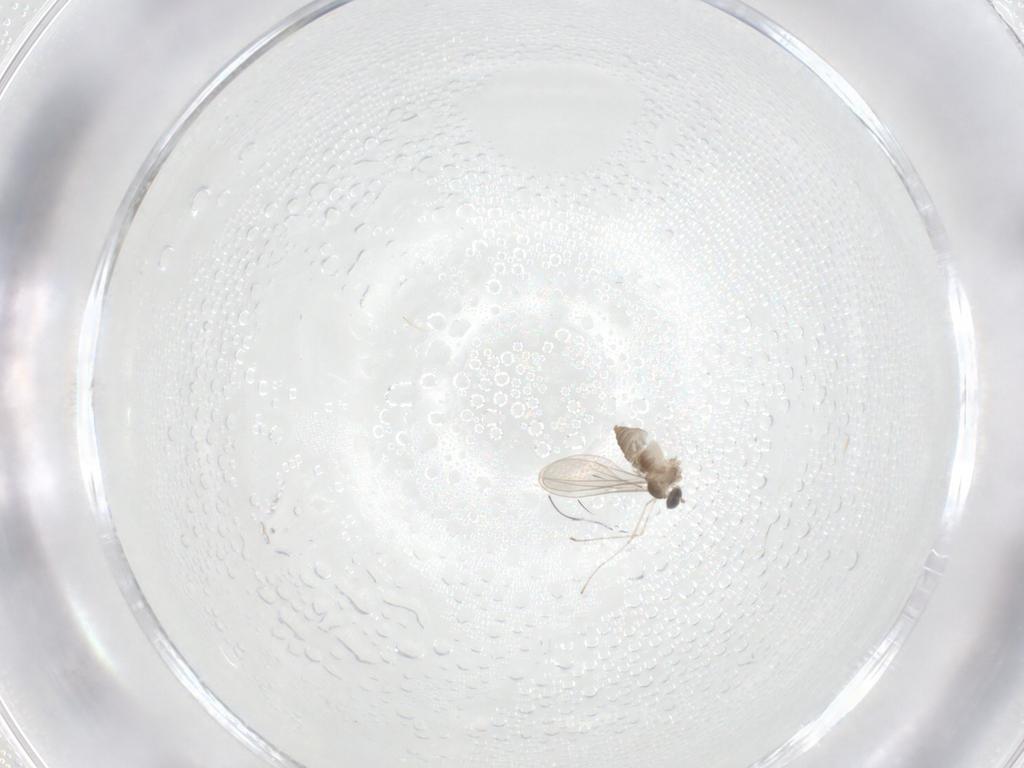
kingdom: Animalia
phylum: Arthropoda
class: Insecta
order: Diptera
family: Cecidomyiidae
